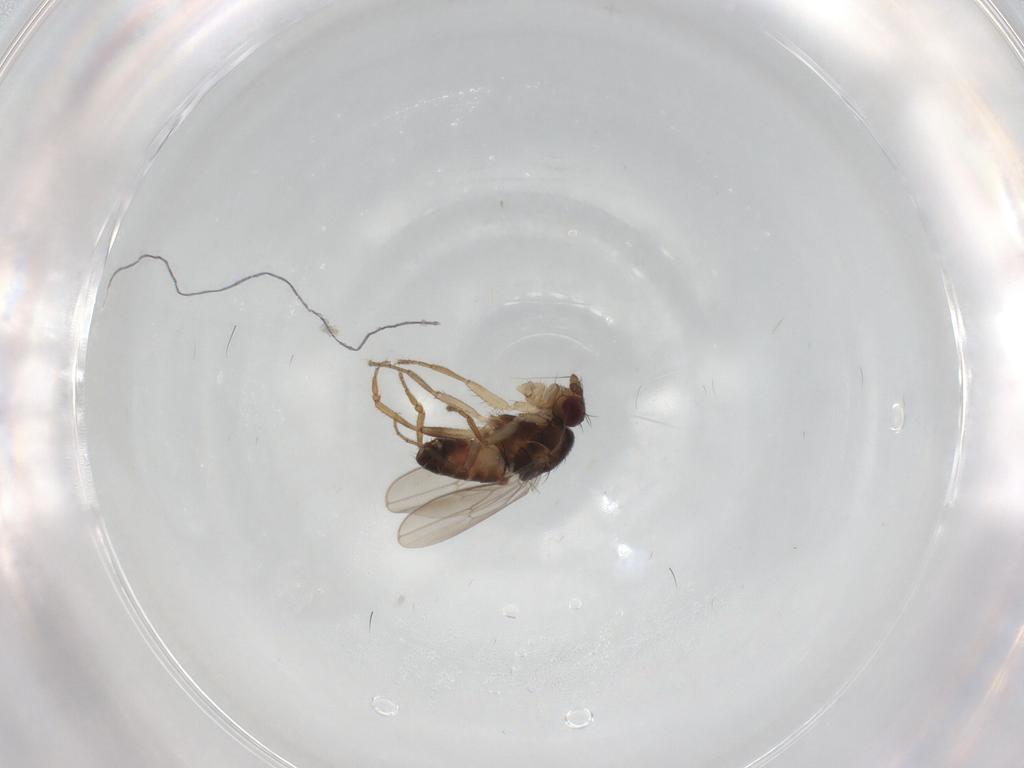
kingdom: Animalia
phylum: Arthropoda
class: Insecta
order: Diptera
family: Sphaeroceridae
